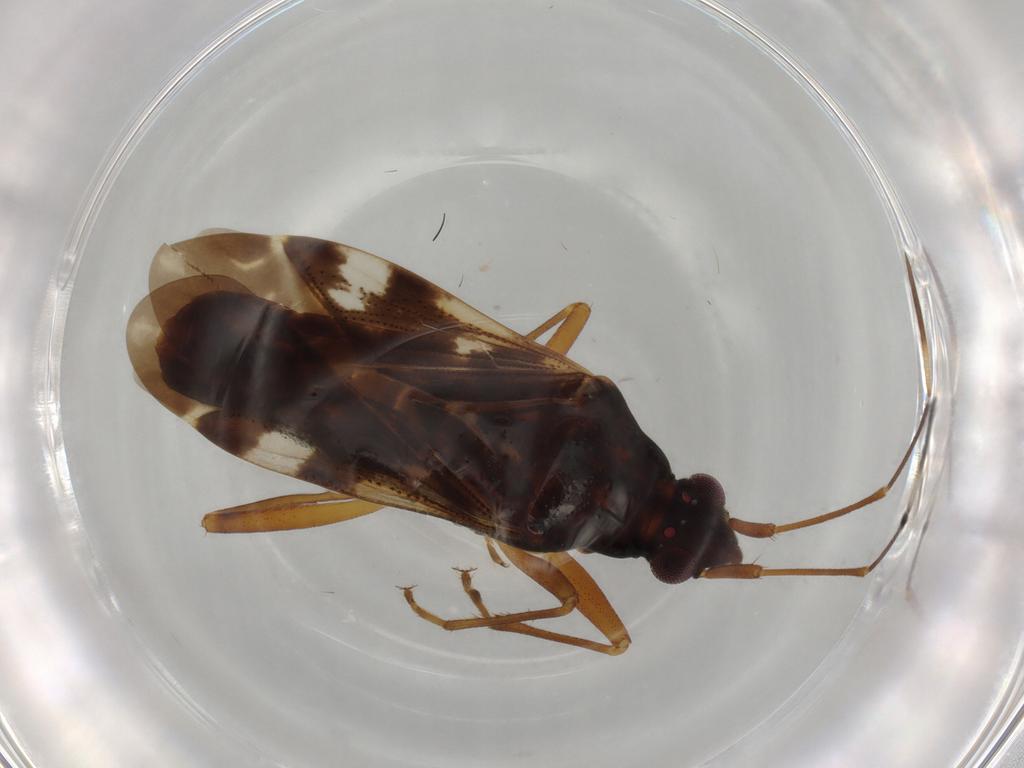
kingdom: Animalia
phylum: Arthropoda
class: Insecta
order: Hemiptera
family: Rhyparochromidae
